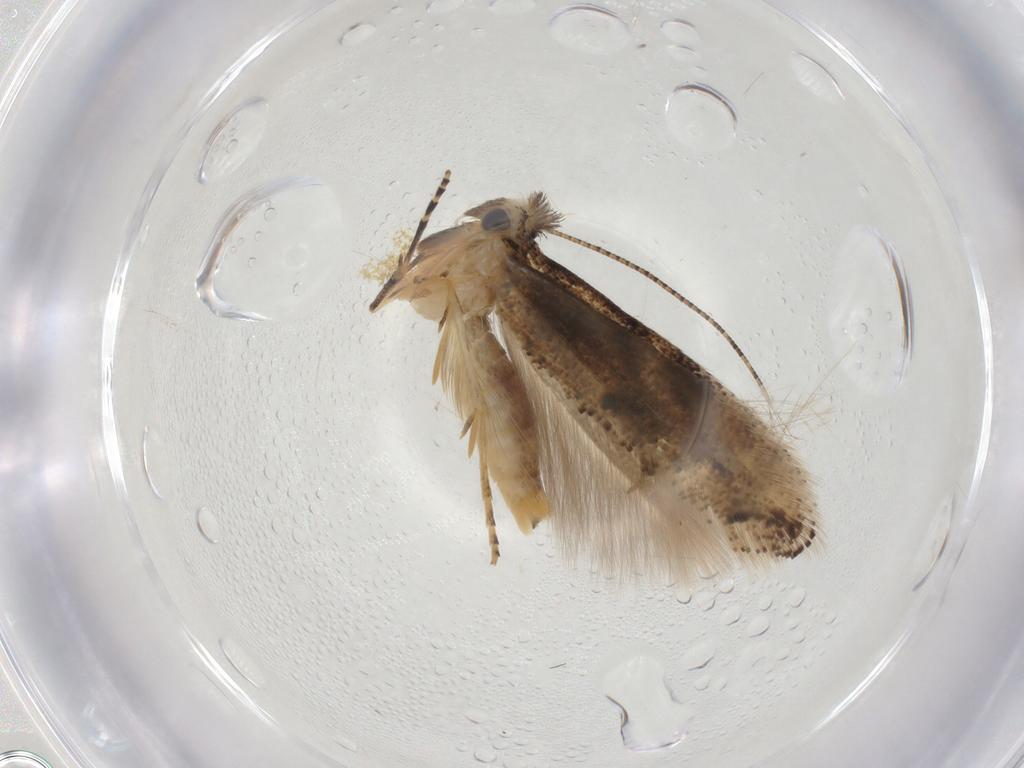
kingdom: Animalia
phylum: Arthropoda
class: Insecta
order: Lepidoptera
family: Bucculatricidae
